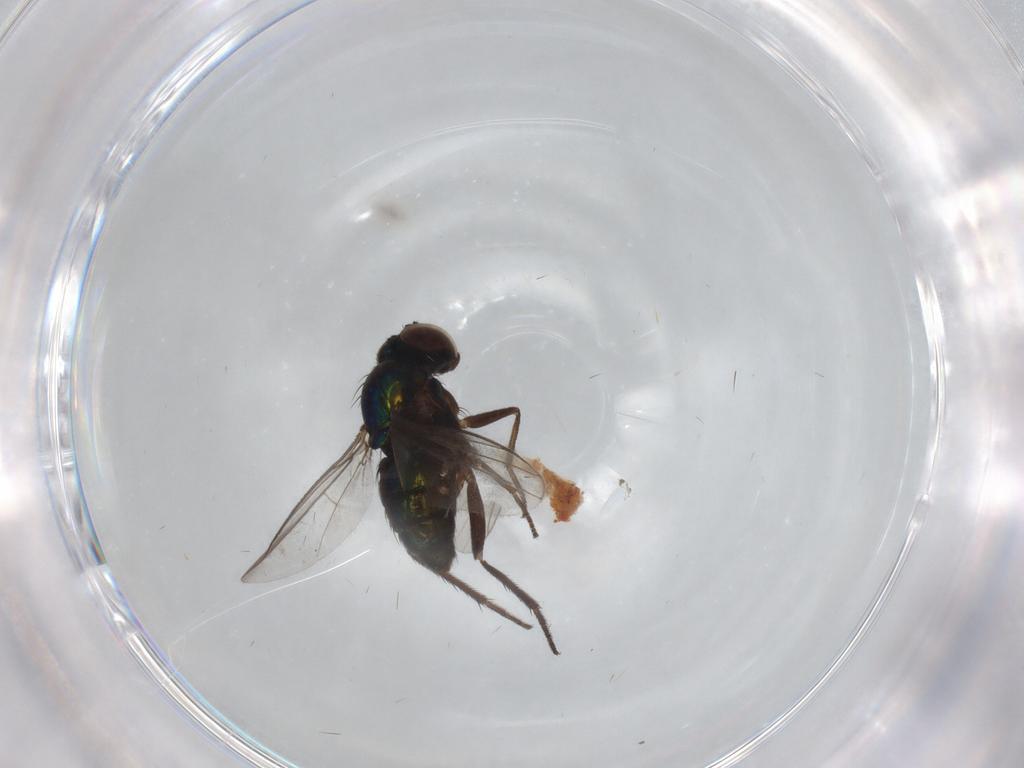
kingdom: Animalia
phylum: Arthropoda
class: Insecta
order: Diptera
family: Dolichopodidae
